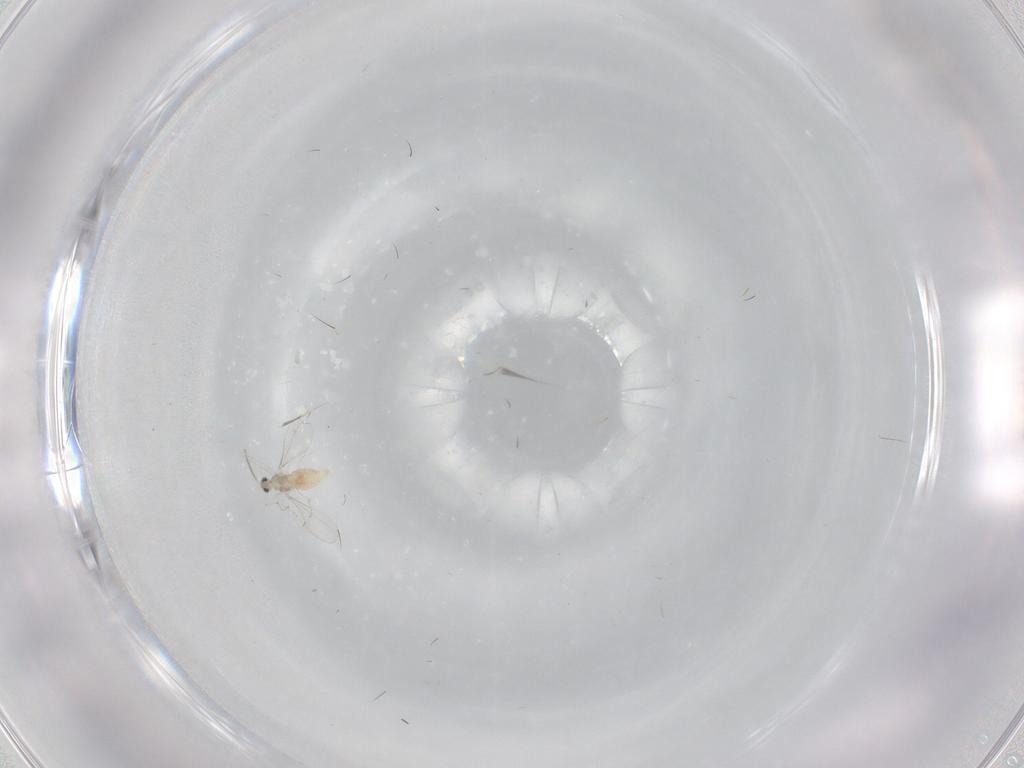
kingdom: Animalia
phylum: Arthropoda
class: Insecta
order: Diptera
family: Cecidomyiidae
